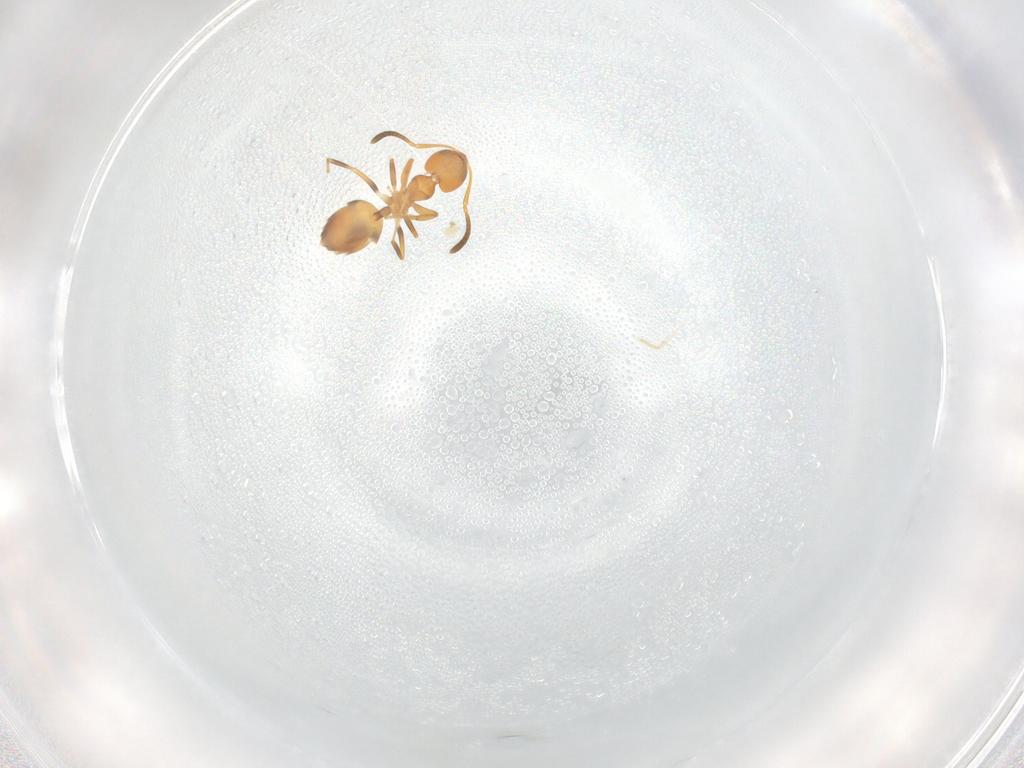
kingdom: Animalia
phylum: Arthropoda
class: Insecta
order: Hymenoptera
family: Formicidae
